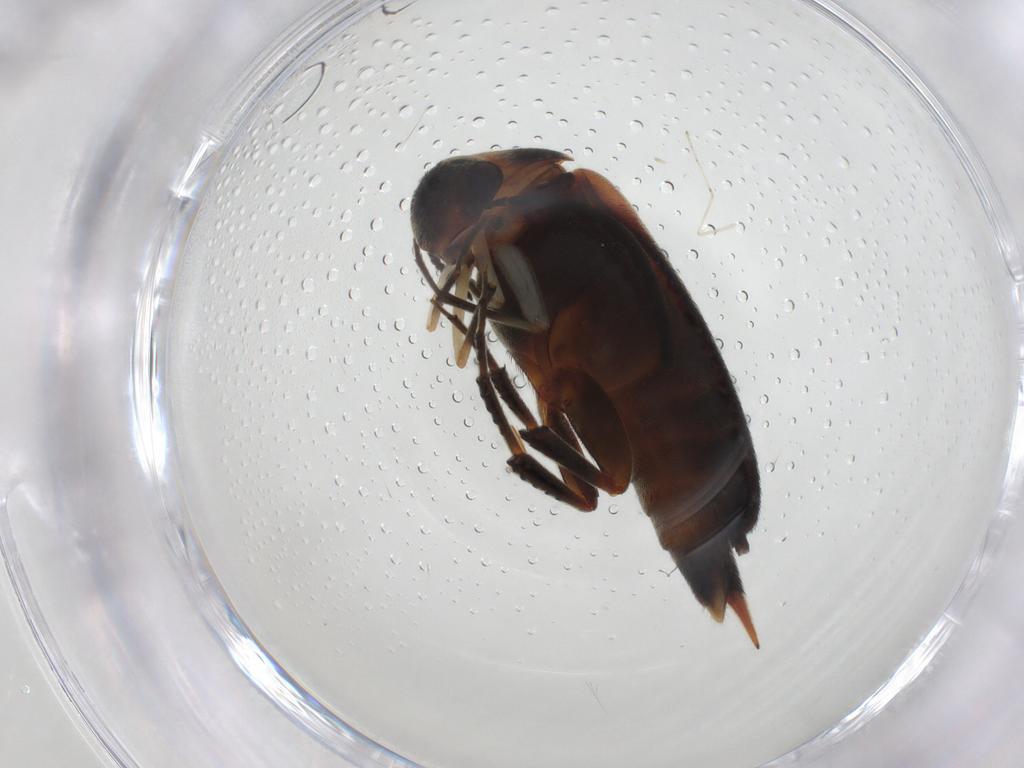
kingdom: Animalia
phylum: Arthropoda
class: Insecta
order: Coleoptera
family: Mordellidae
